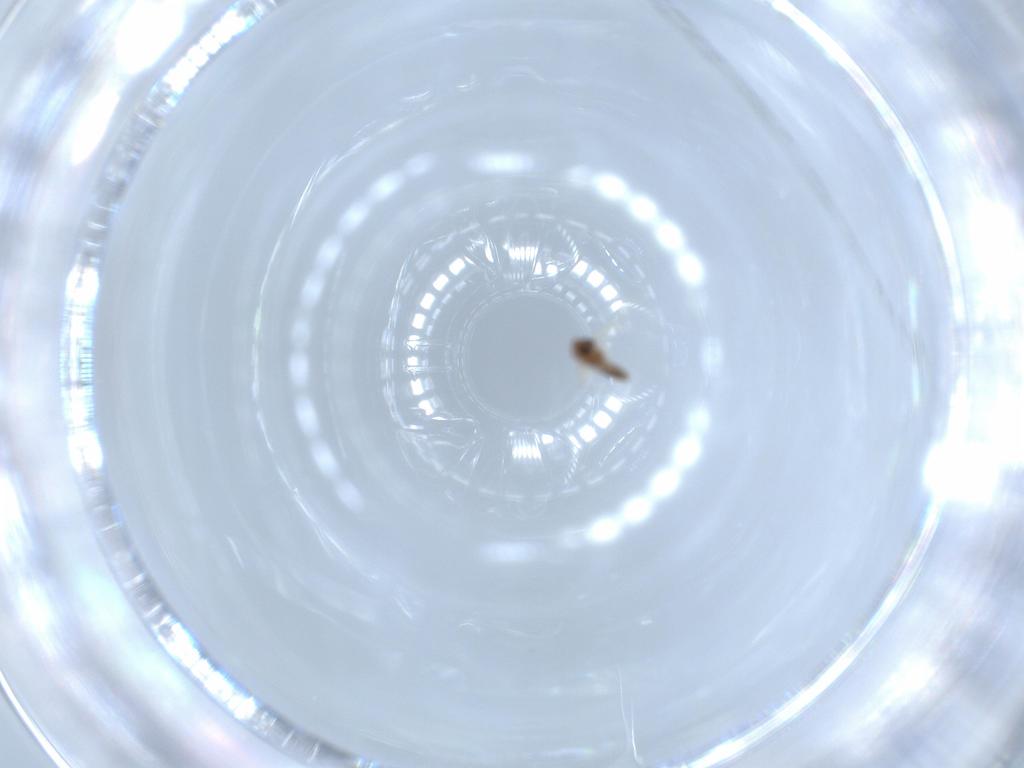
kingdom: Animalia
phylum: Arthropoda
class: Insecta
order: Diptera
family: Chironomidae
